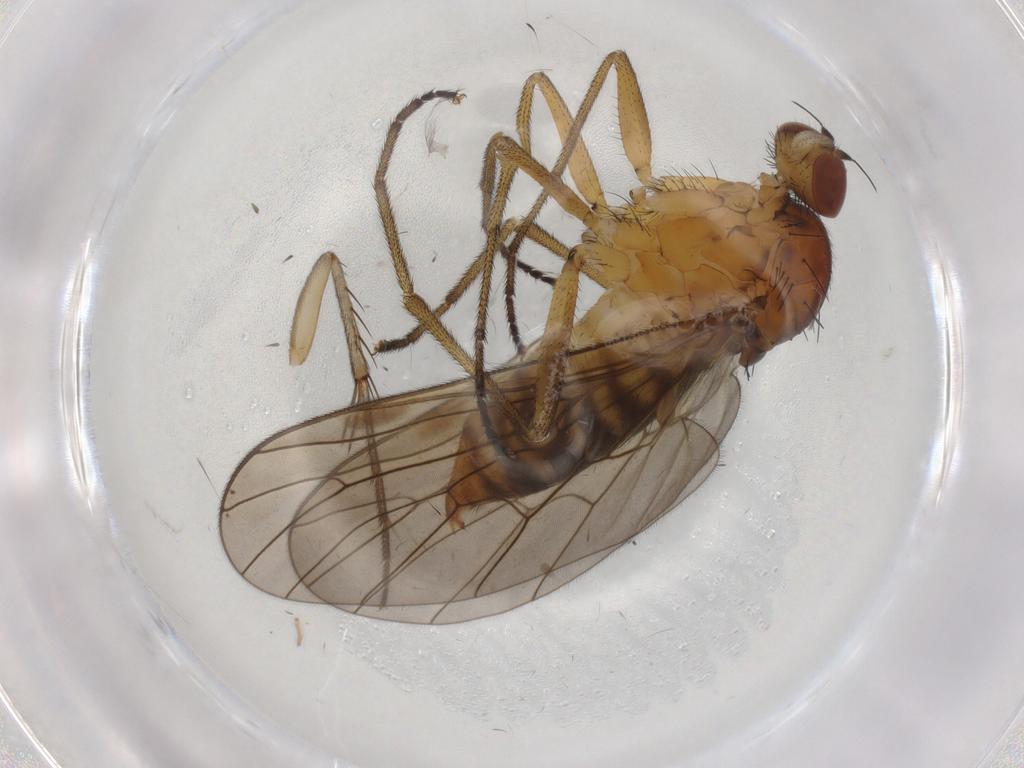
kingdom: Animalia
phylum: Arthropoda
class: Insecta
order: Diptera
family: Brachystomatidae
